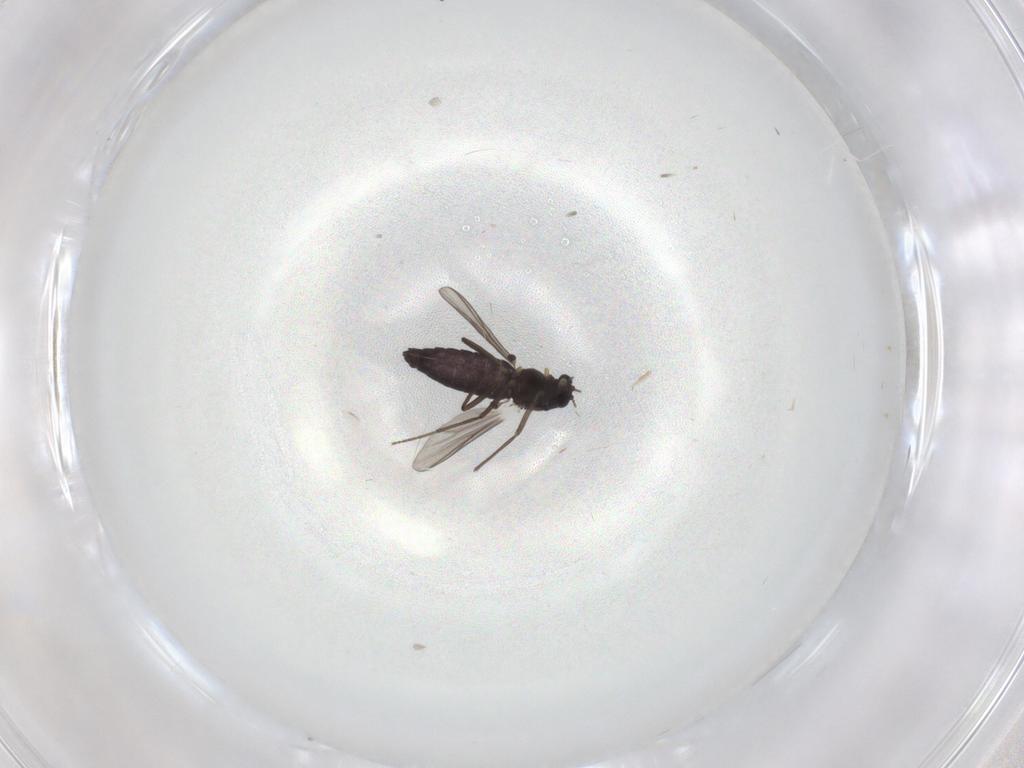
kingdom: Animalia
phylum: Arthropoda
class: Insecta
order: Diptera
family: Chironomidae
